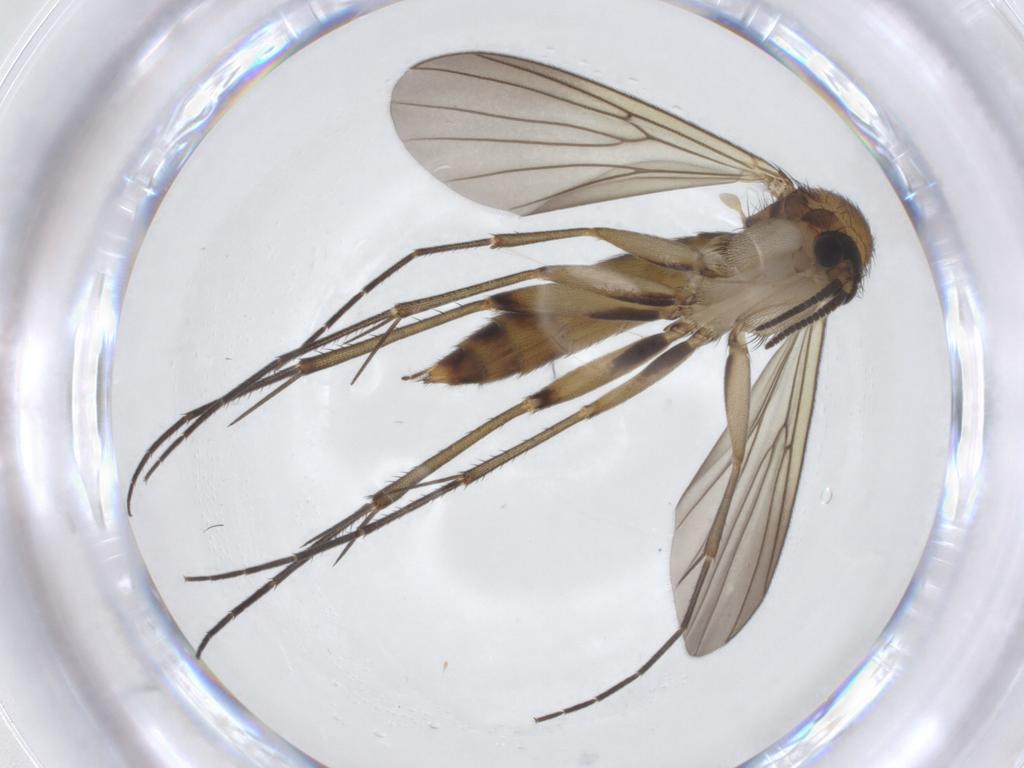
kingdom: Animalia
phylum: Arthropoda
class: Insecta
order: Diptera
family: Mycetophilidae
